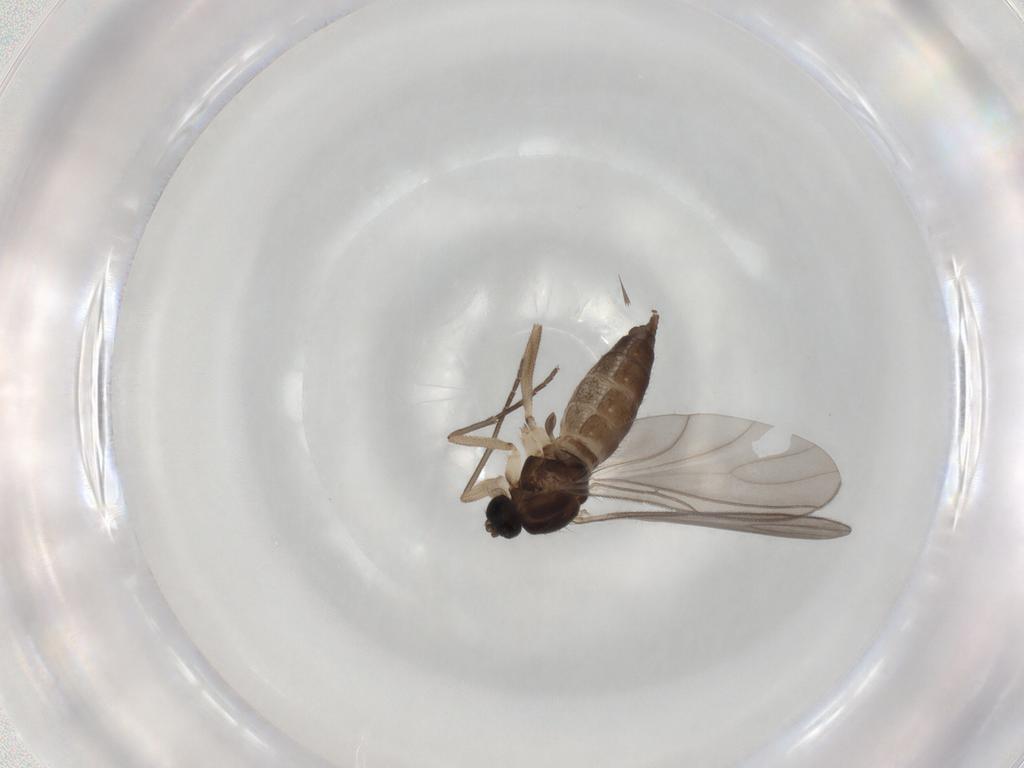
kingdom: Animalia
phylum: Arthropoda
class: Insecta
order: Diptera
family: Sciaridae
